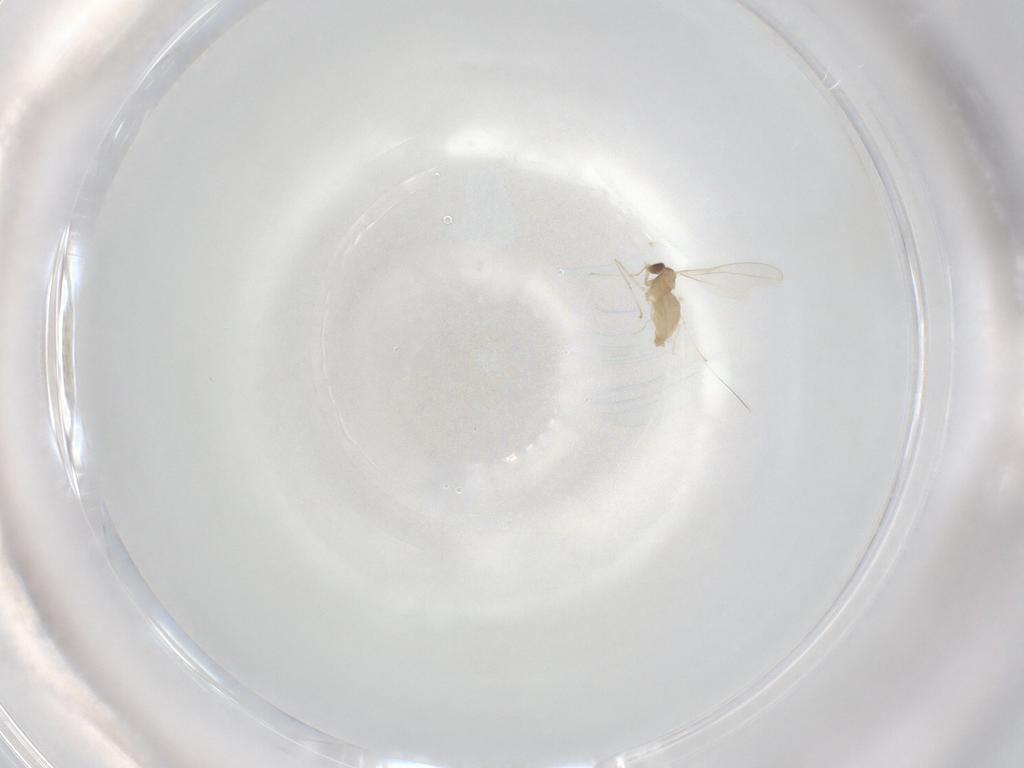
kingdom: Animalia
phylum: Arthropoda
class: Insecta
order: Diptera
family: Cecidomyiidae
